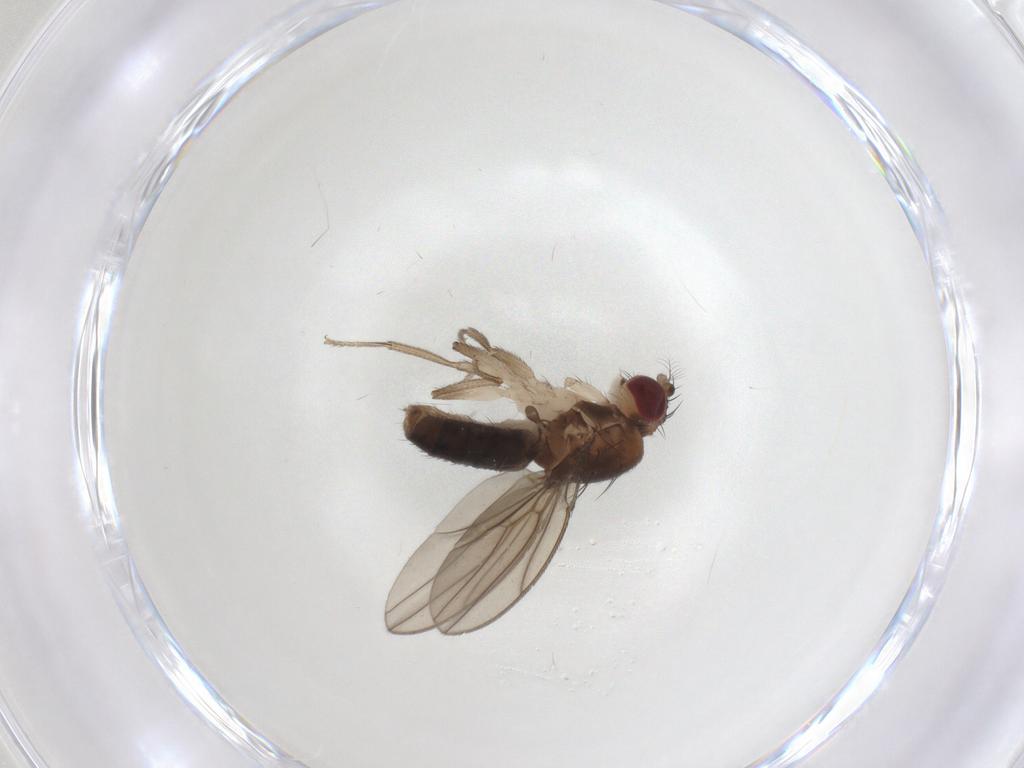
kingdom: Animalia
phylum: Arthropoda
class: Insecta
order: Diptera
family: Drosophilidae
